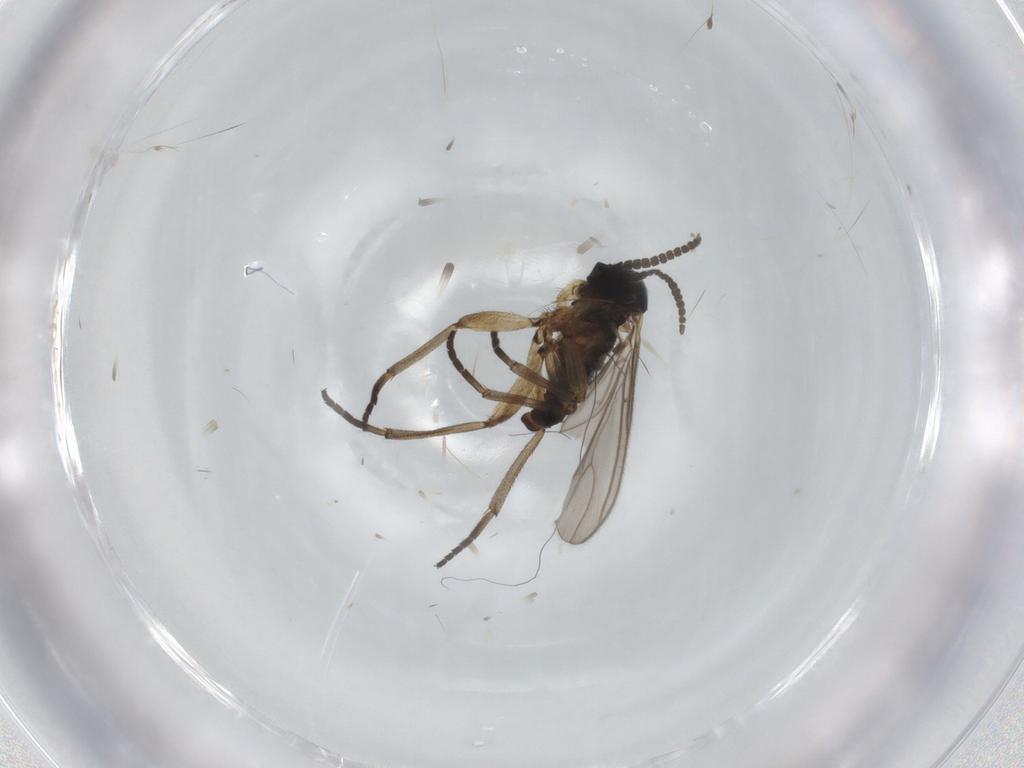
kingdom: Animalia
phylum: Arthropoda
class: Insecta
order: Diptera
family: Sciaridae
